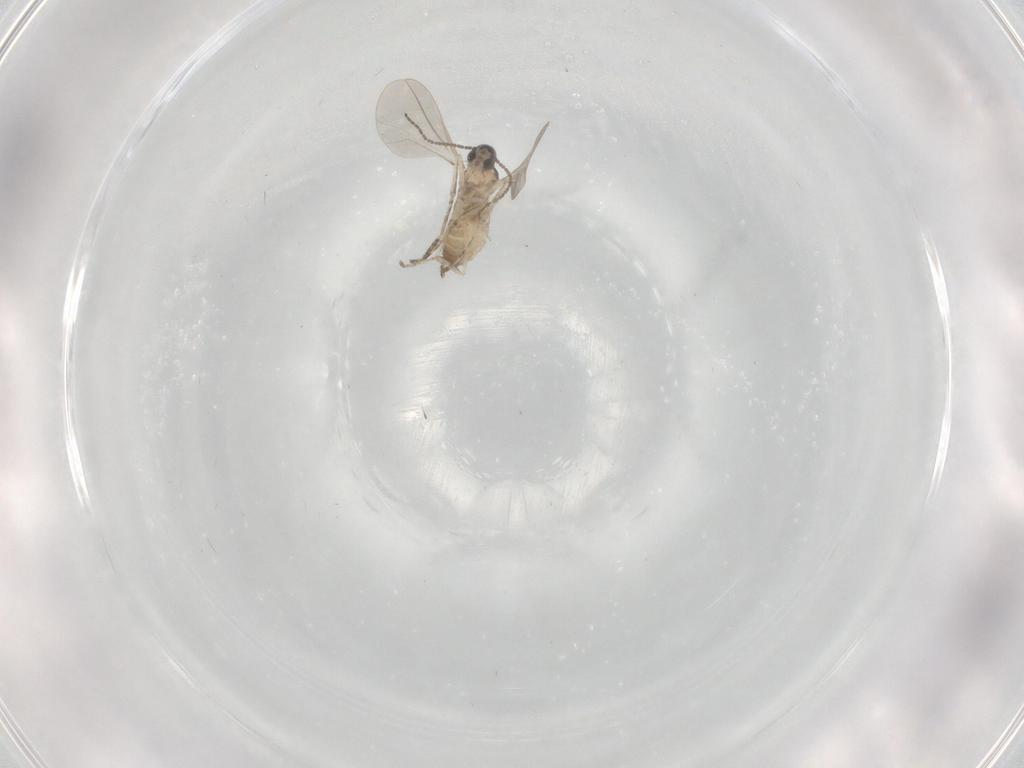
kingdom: Animalia
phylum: Arthropoda
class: Insecta
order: Diptera
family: Cecidomyiidae
